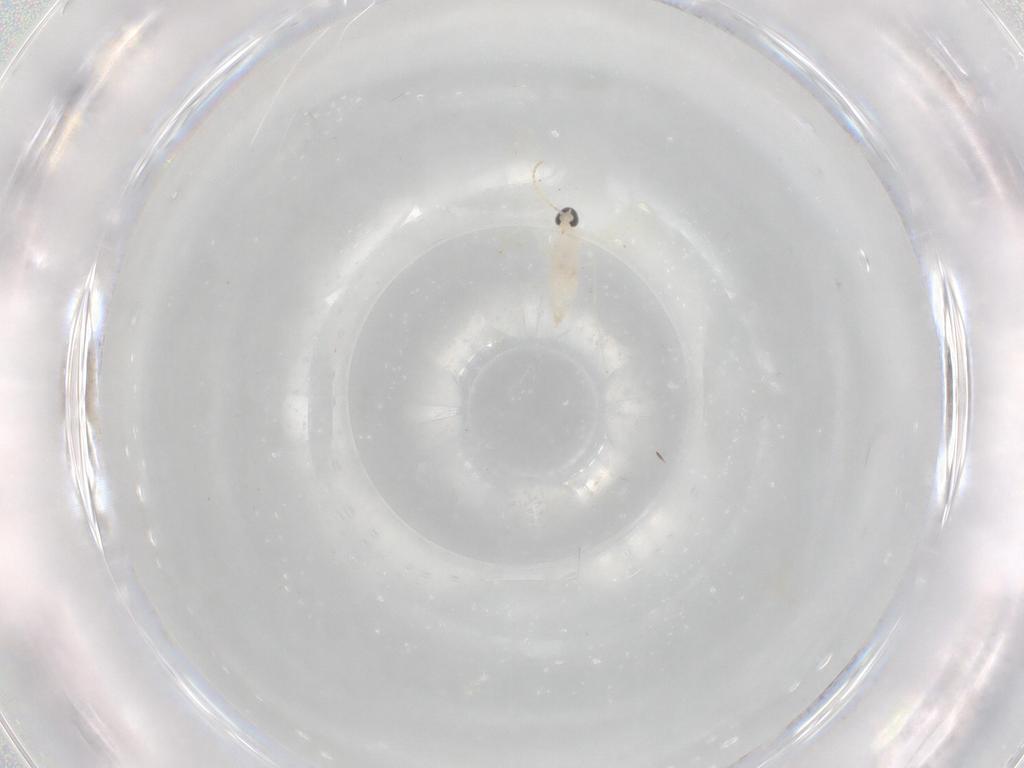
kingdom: Animalia
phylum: Arthropoda
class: Insecta
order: Diptera
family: Cecidomyiidae
